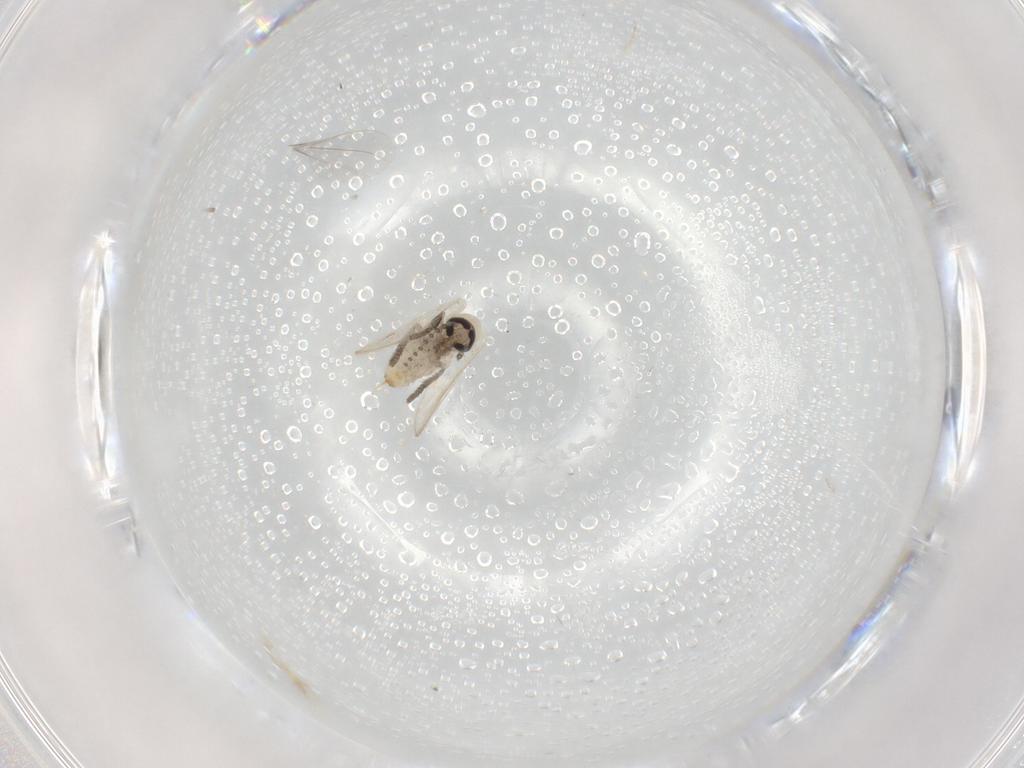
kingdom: Animalia
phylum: Arthropoda
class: Insecta
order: Diptera
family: Psychodidae
